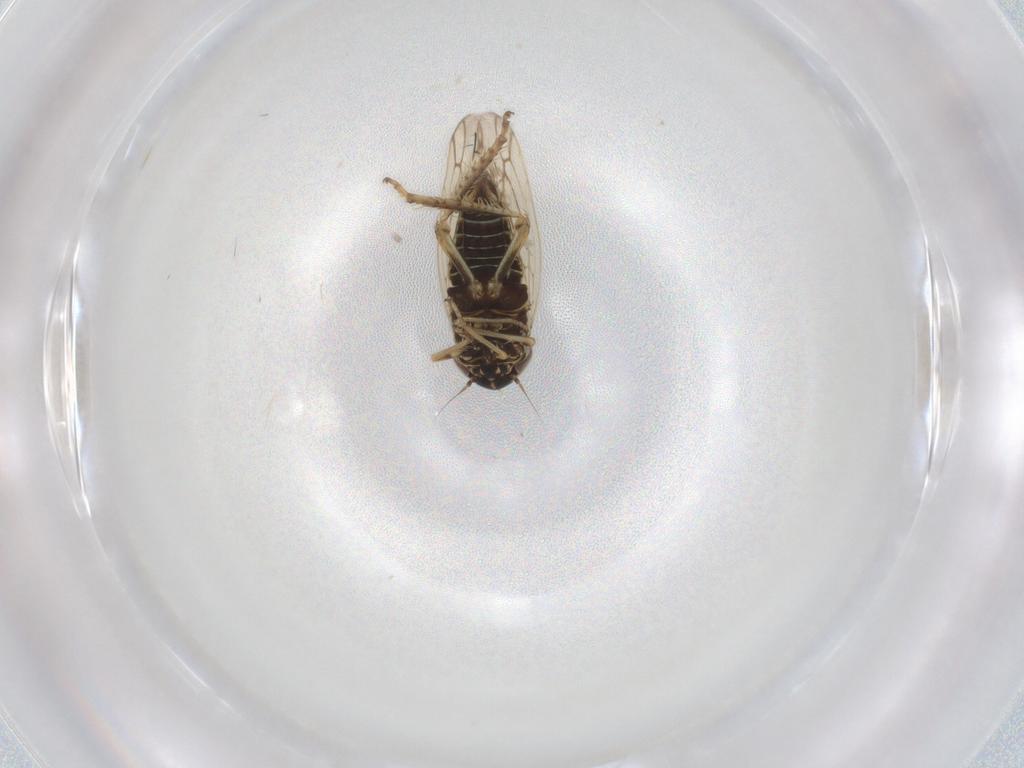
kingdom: Animalia
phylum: Arthropoda
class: Insecta
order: Hemiptera
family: Cicadellidae
